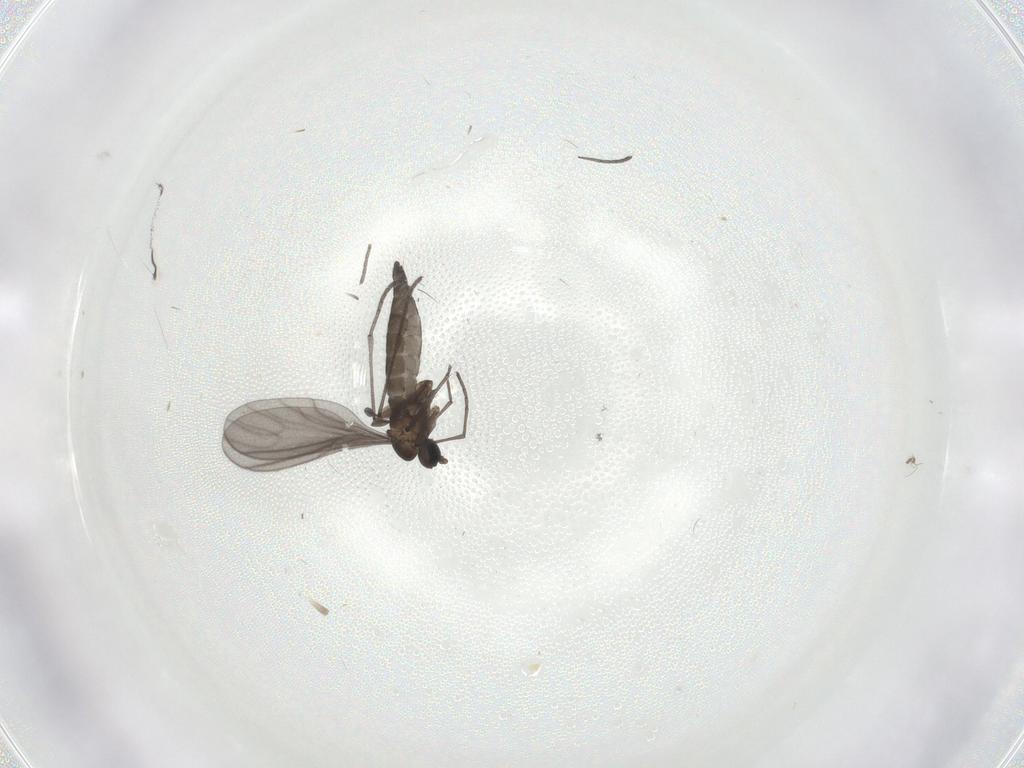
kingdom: Animalia
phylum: Arthropoda
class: Insecta
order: Diptera
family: Sciaridae
